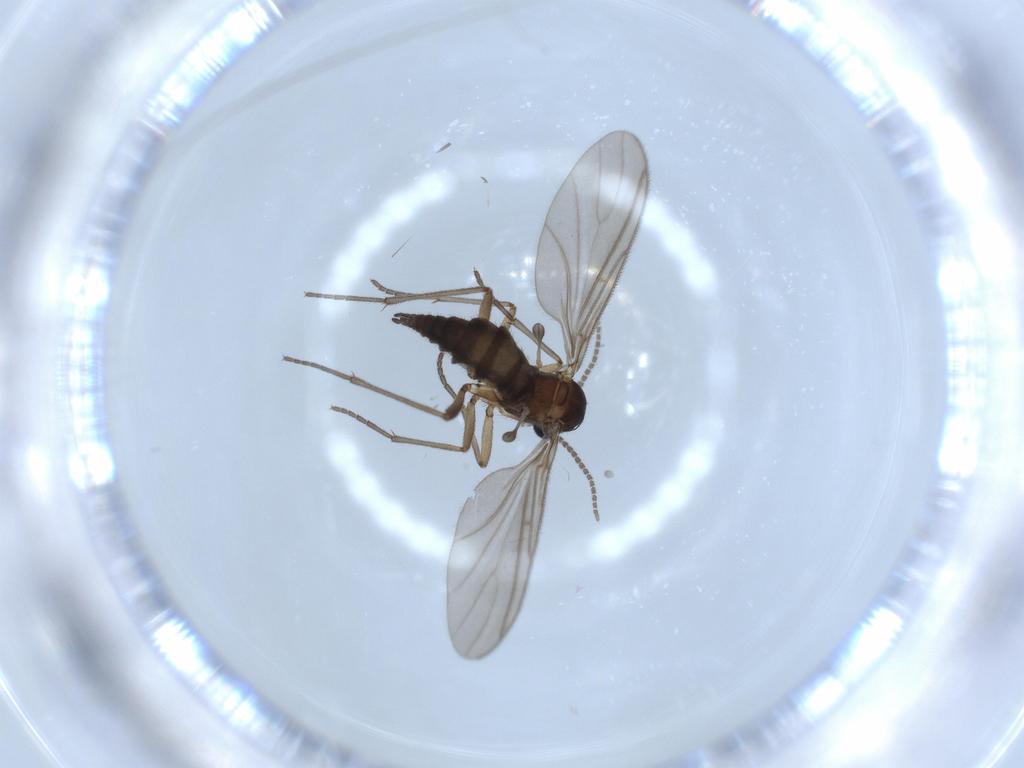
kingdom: Animalia
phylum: Arthropoda
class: Insecta
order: Diptera
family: Sciaridae
